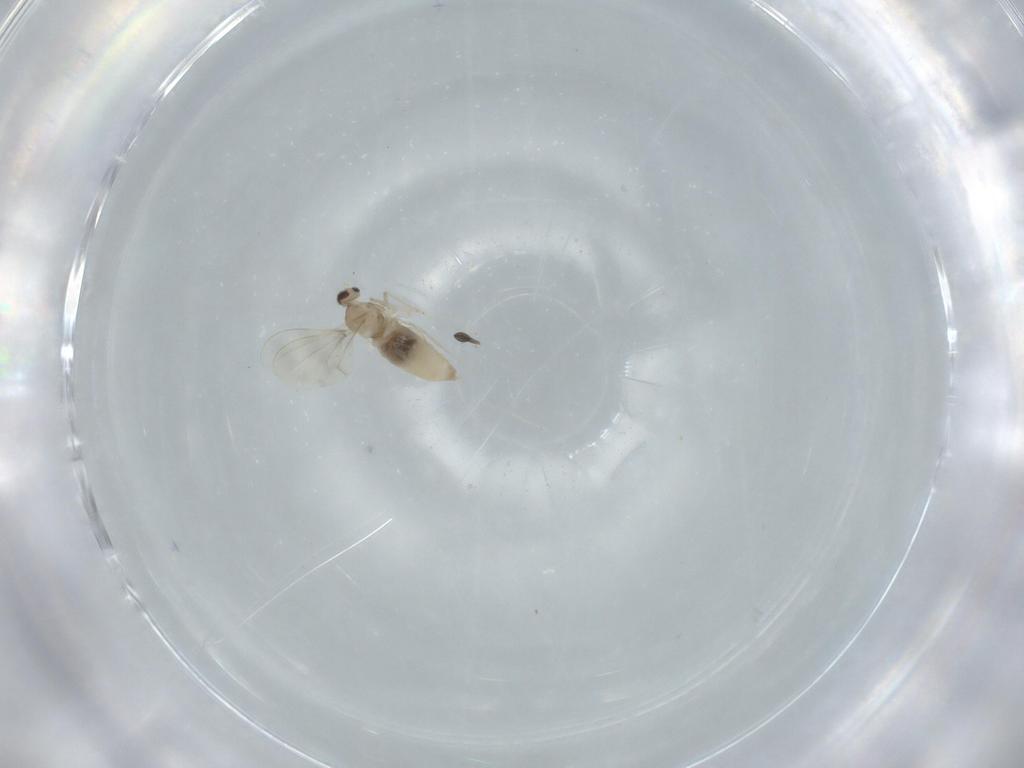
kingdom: Animalia
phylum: Arthropoda
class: Insecta
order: Diptera
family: Cecidomyiidae
